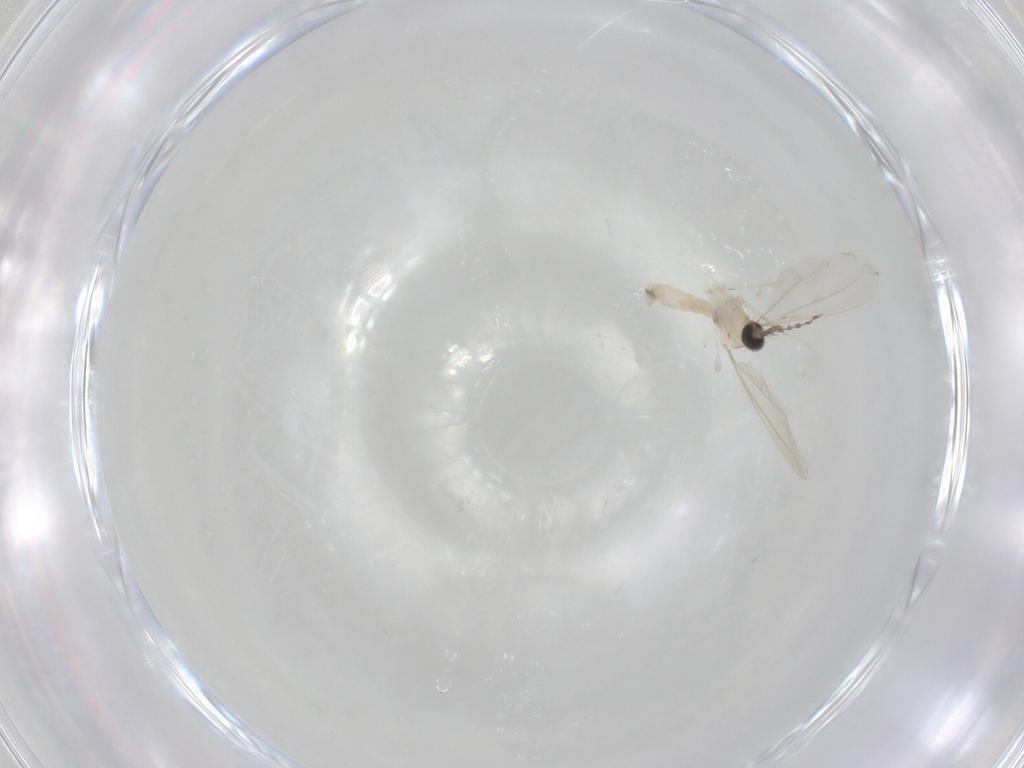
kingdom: Animalia
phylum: Arthropoda
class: Insecta
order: Diptera
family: Cecidomyiidae
